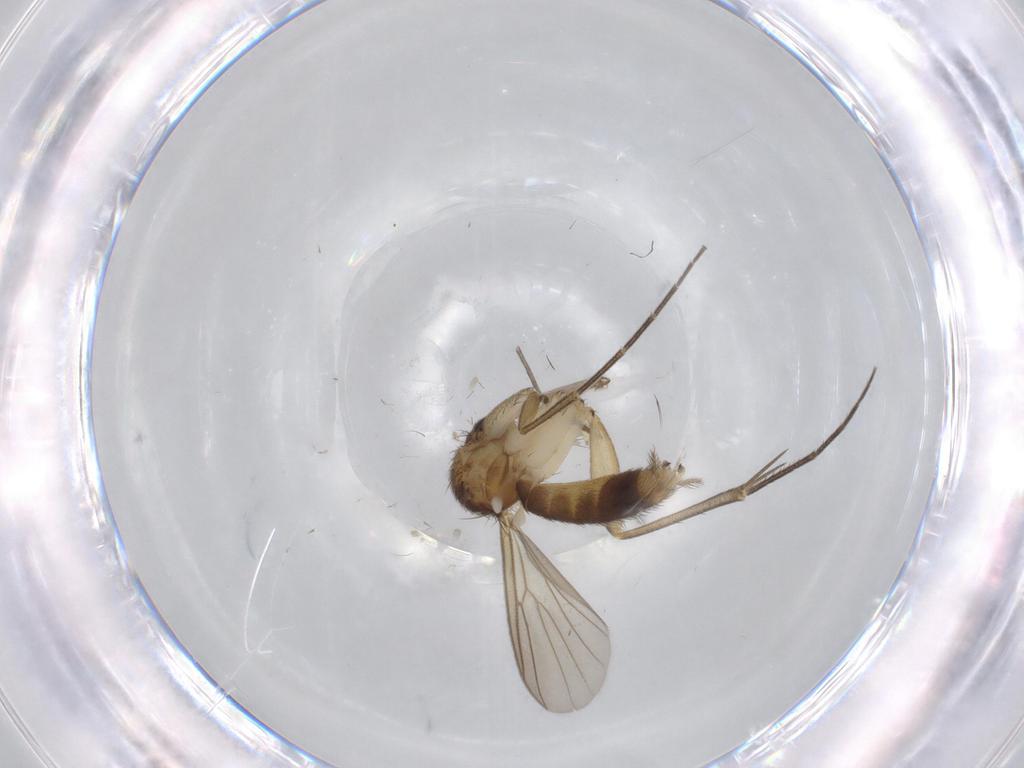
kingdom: Animalia
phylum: Arthropoda
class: Insecta
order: Diptera
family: Mycetophilidae
